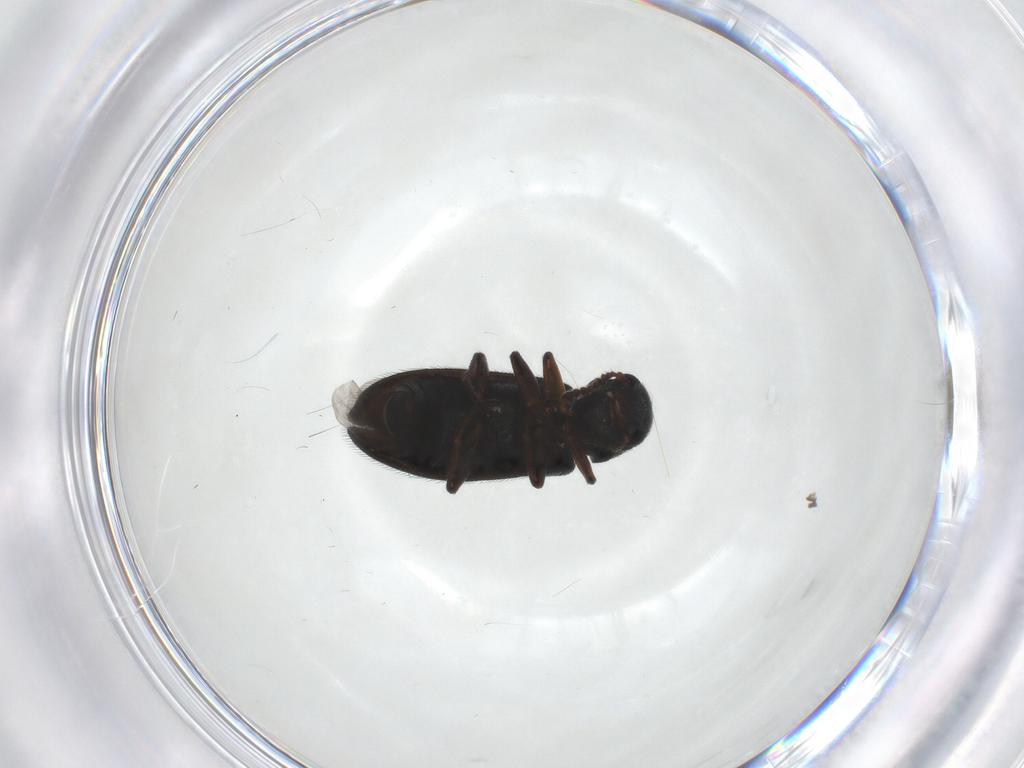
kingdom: Animalia
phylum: Arthropoda
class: Insecta
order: Coleoptera
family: Melyridae
